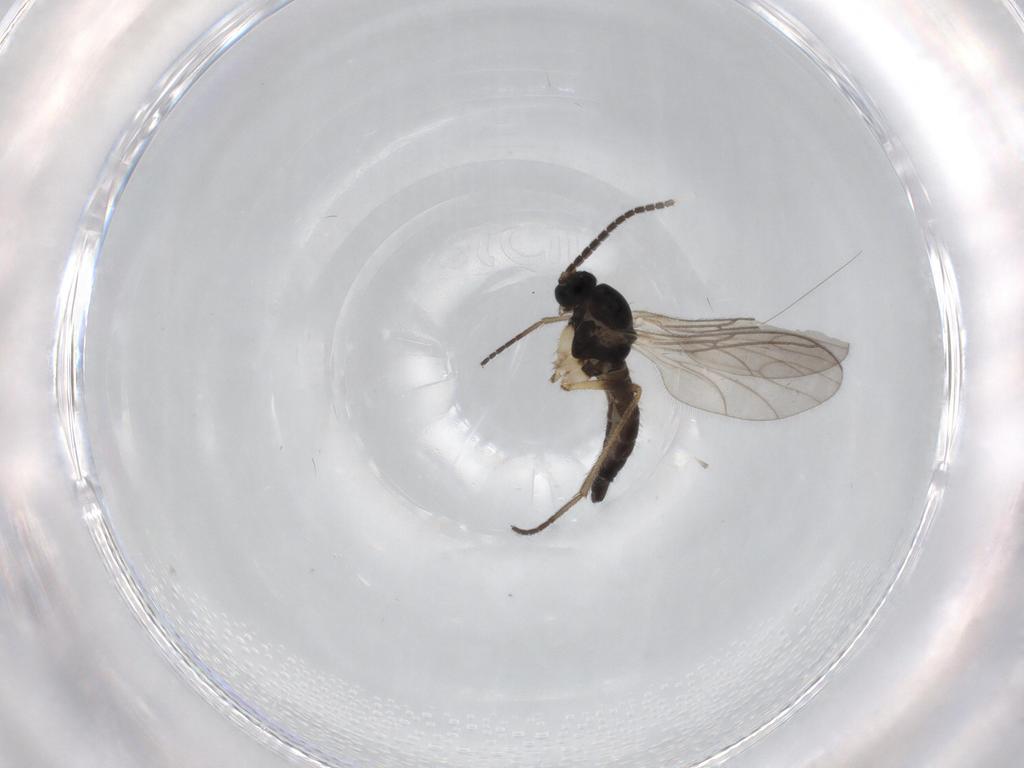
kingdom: Animalia
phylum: Arthropoda
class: Insecta
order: Diptera
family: Sciaridae
